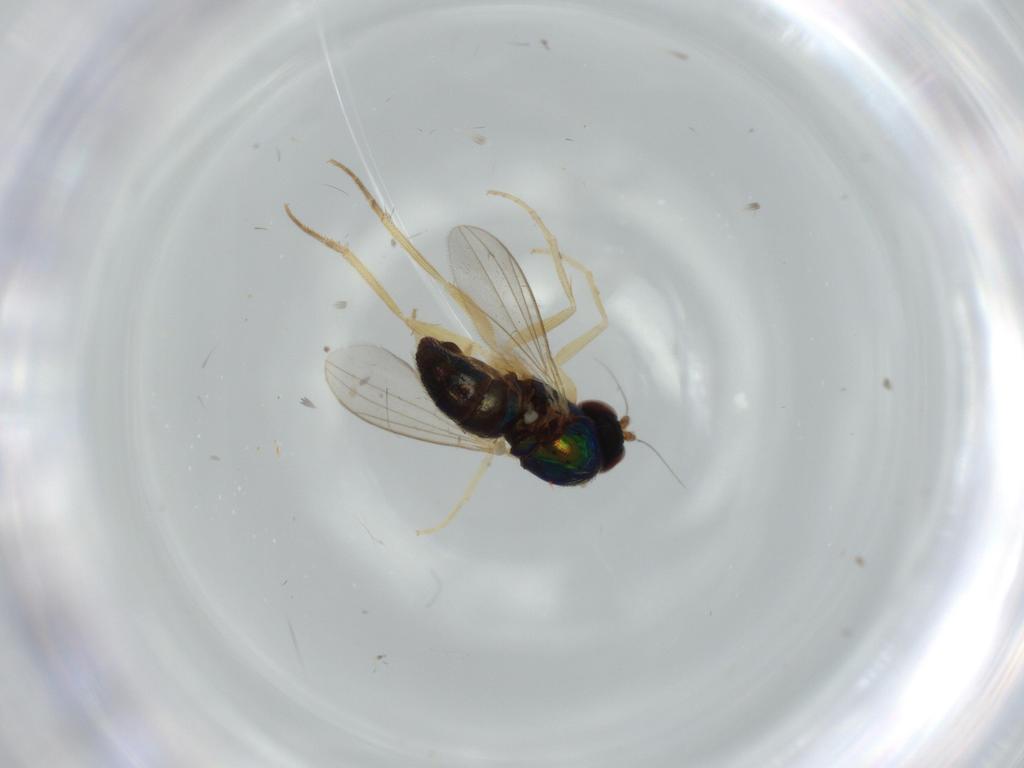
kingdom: Animalia
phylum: Arthropoda
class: Insecta
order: Diptera
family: Dolichopodidae
